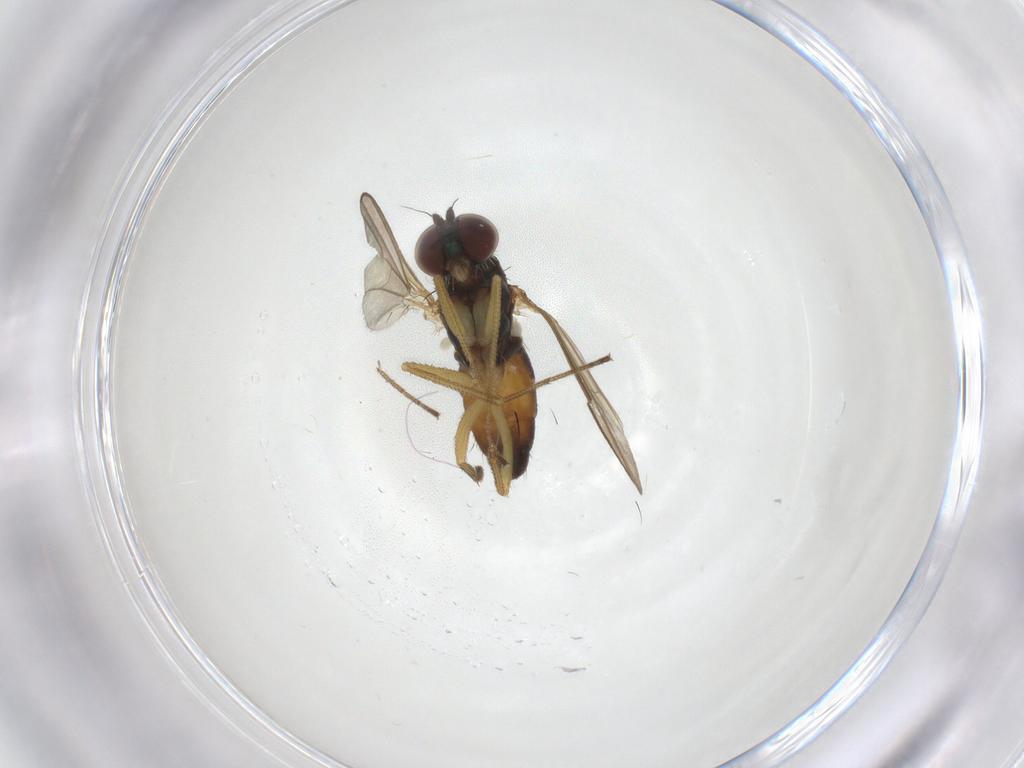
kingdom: Animalia
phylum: Arthropoda
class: Insecta
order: Diptera
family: Dolichopodidae
